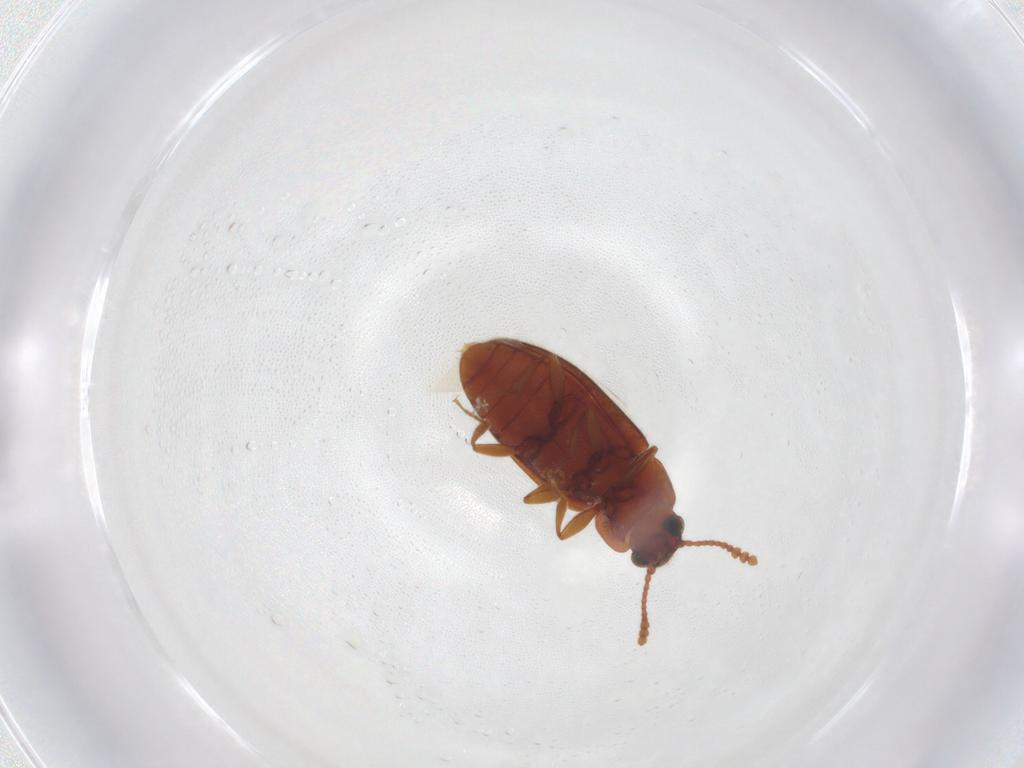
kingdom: Animalia
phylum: Arthropoda
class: Insecta
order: Coleoptera
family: Erotylidae
